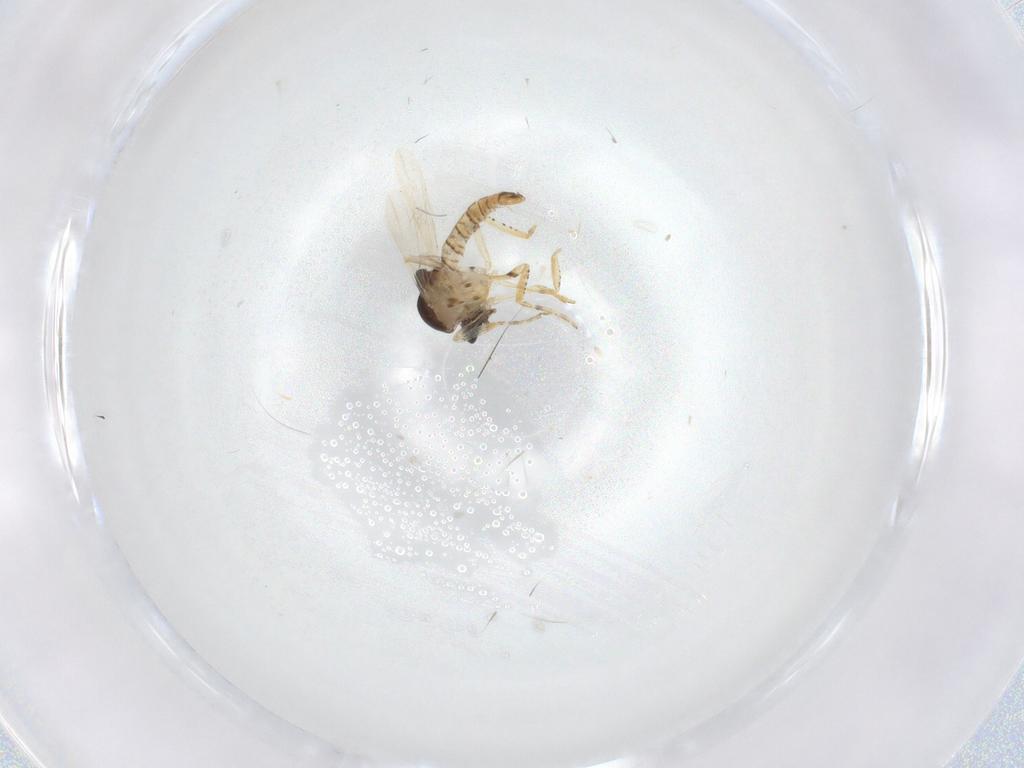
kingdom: Animalia
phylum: Arthropoda
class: Insecta
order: Diptera
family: Ceratopogonidae
